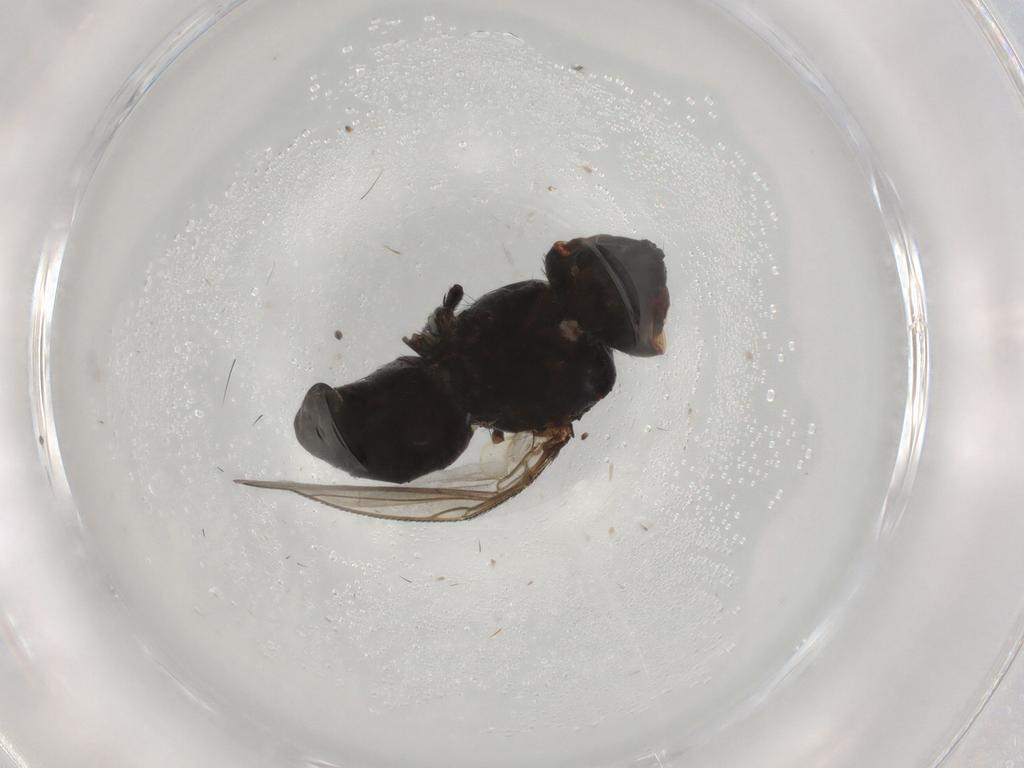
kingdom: Animalia
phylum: Arthropoda
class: Insecta
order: Diptera
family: Tachinidae
